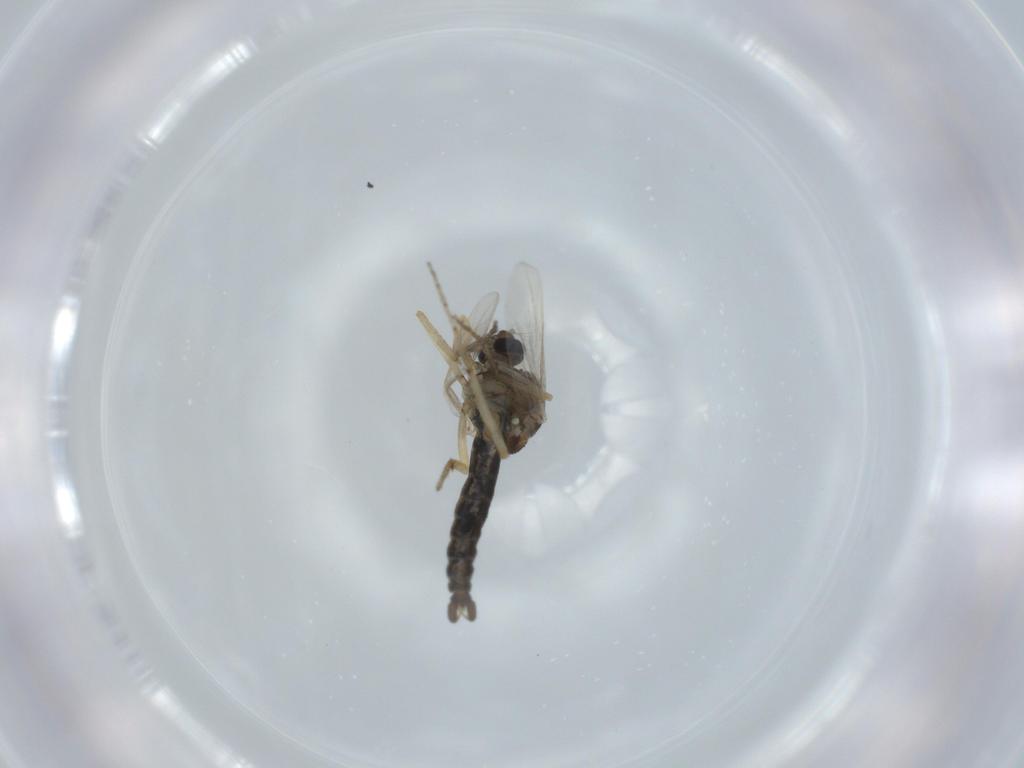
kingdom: Animalia
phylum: Arthropoda
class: Insecta
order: Diptera
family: Ceratopogonidae
